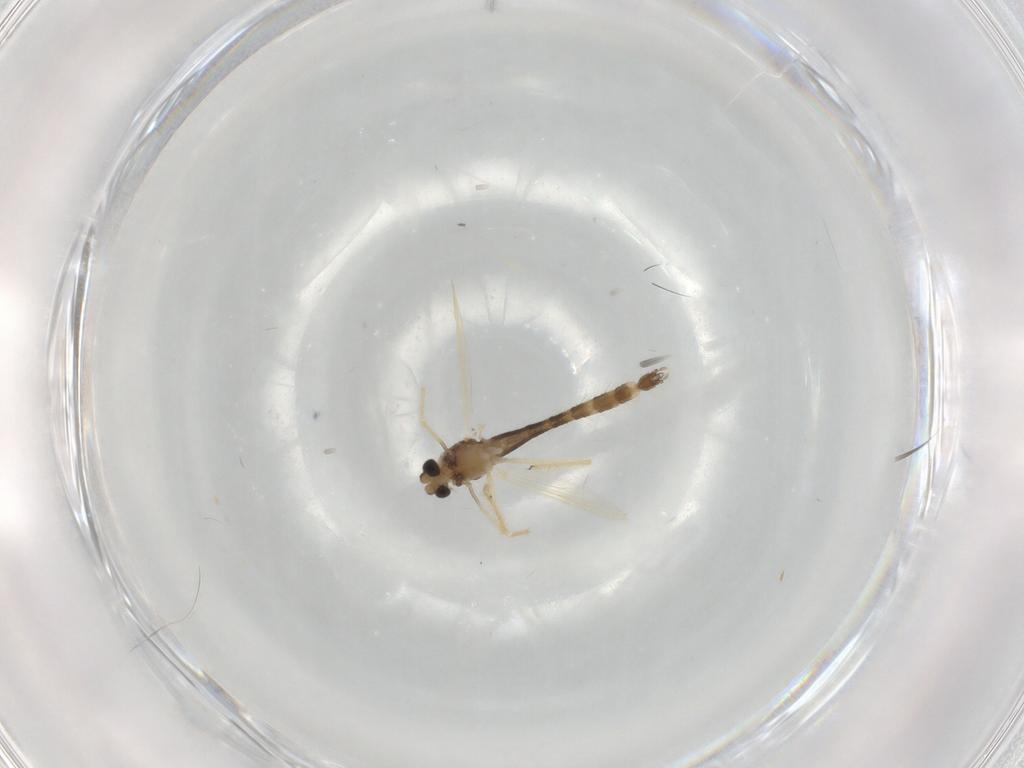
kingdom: Animalia
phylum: Arthropoda
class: Insecta
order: Diptera
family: Chironomidae
